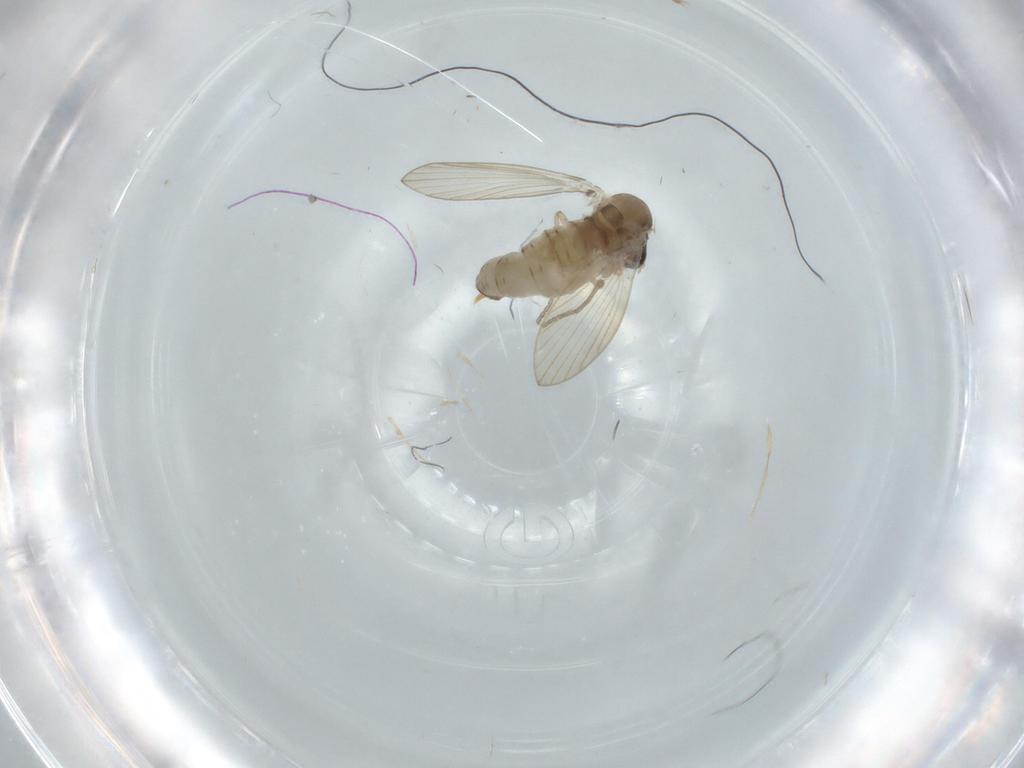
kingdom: Animalia
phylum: Arthropoda
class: Insecta
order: Diptera
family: Psychodidae
